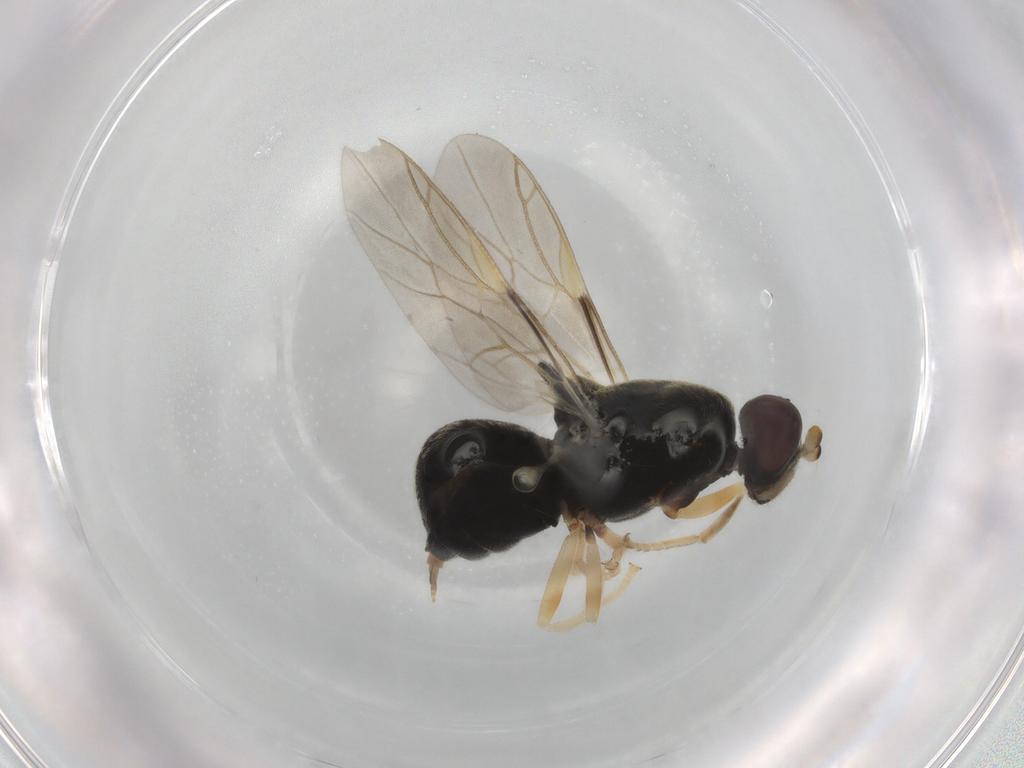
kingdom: Animalia
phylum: Arthropoda
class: Insecta
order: Diptera
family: Stratiomyidae
